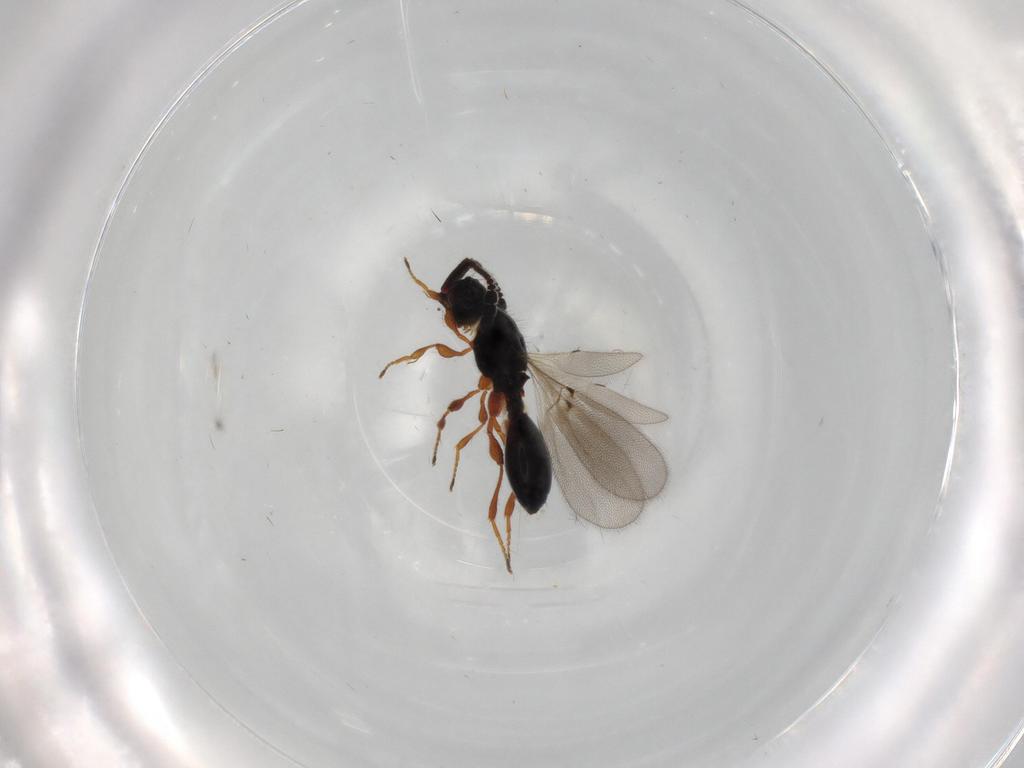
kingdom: Animalia
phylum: Arthropoda
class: Insecta
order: Hymenoptera
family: Diapriidae
